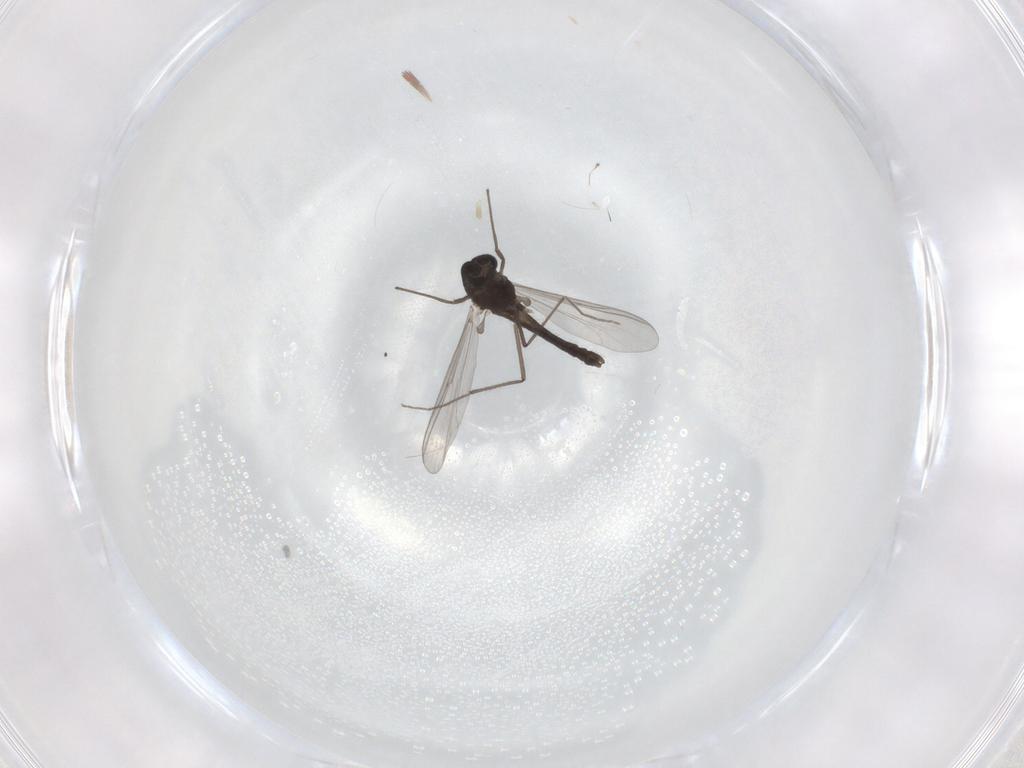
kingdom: Animalia
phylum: Arthropoda
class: Insecta
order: Diptera
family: Chironomidae
